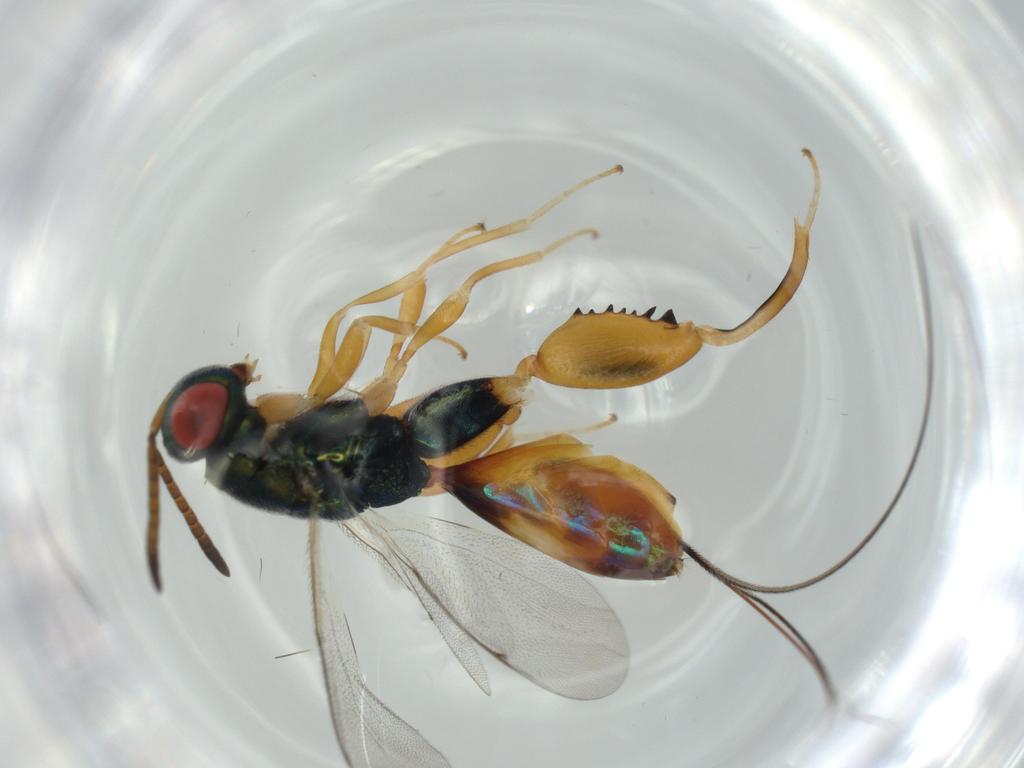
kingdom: Animalia
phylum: Arthropoda
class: Insecta
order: Hymenoptera
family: Torymidae
